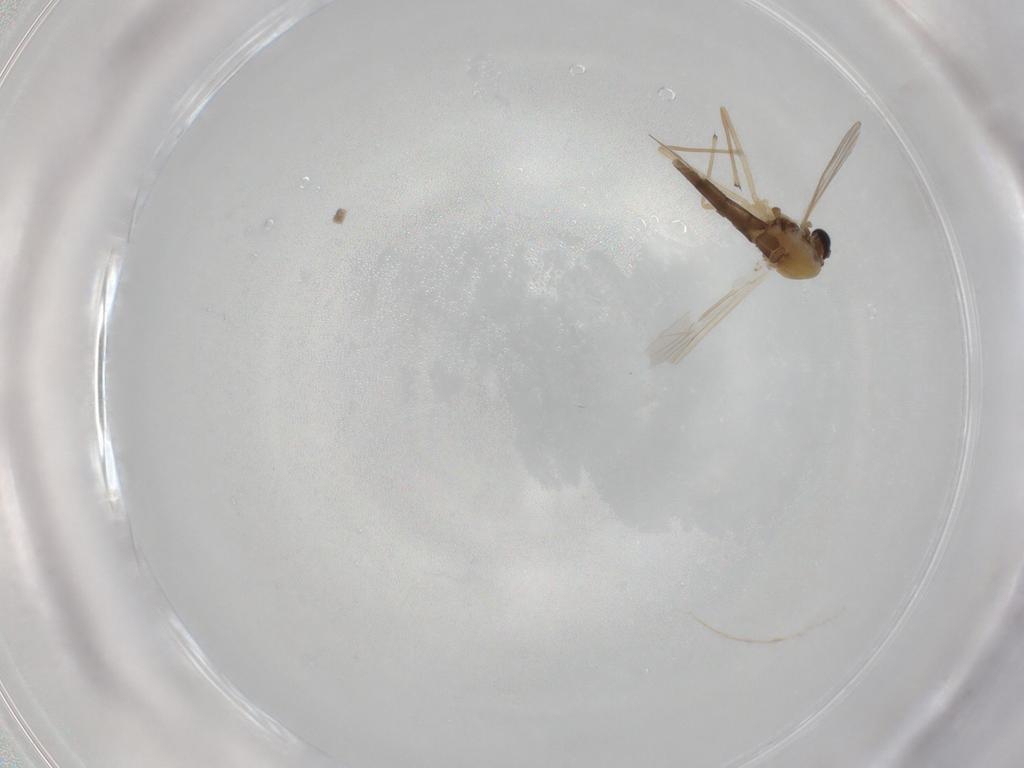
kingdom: Animalia
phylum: Arthropoda
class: Insecta
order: Diptera
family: Chironomidae
